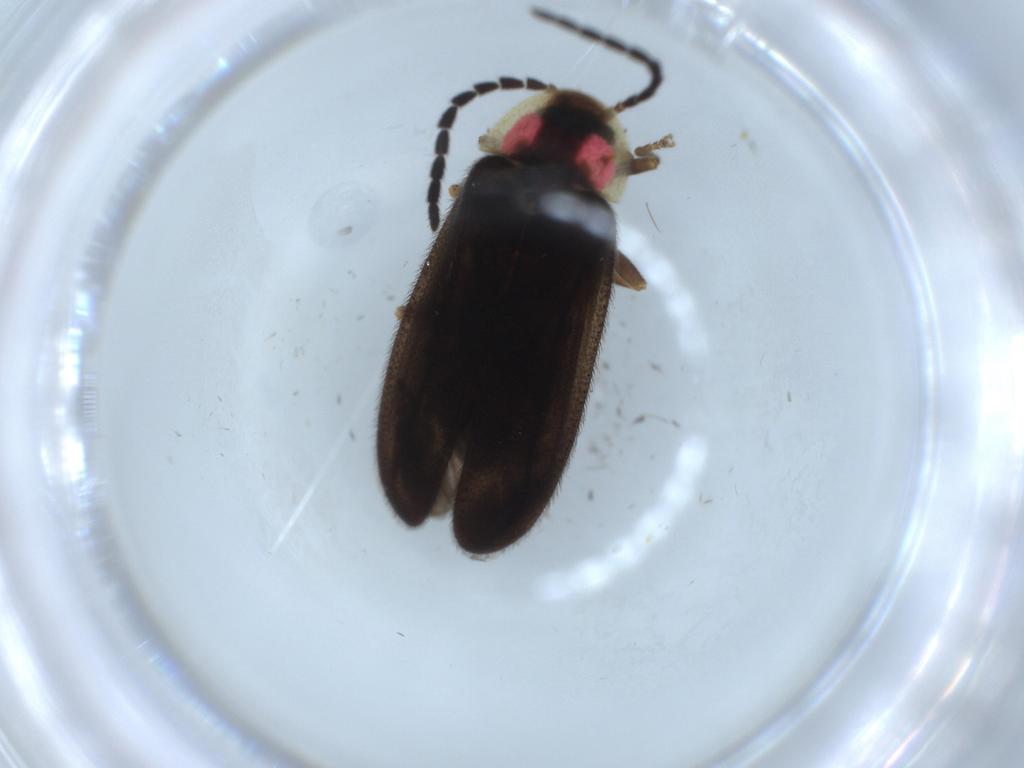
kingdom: Animalia
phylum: Arthropoda
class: Insecta
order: Coleoptera
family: Lampyridae
